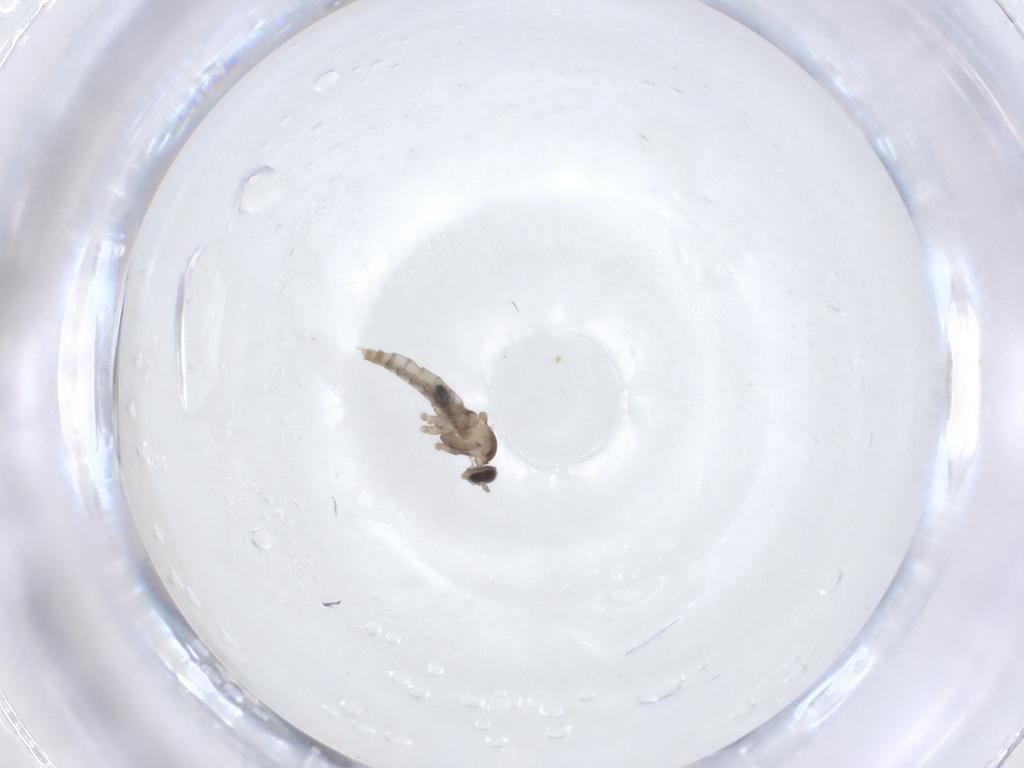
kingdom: Animalia
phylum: Arthropoda
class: Insecta
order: Diptera
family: Cecidomyiidae
